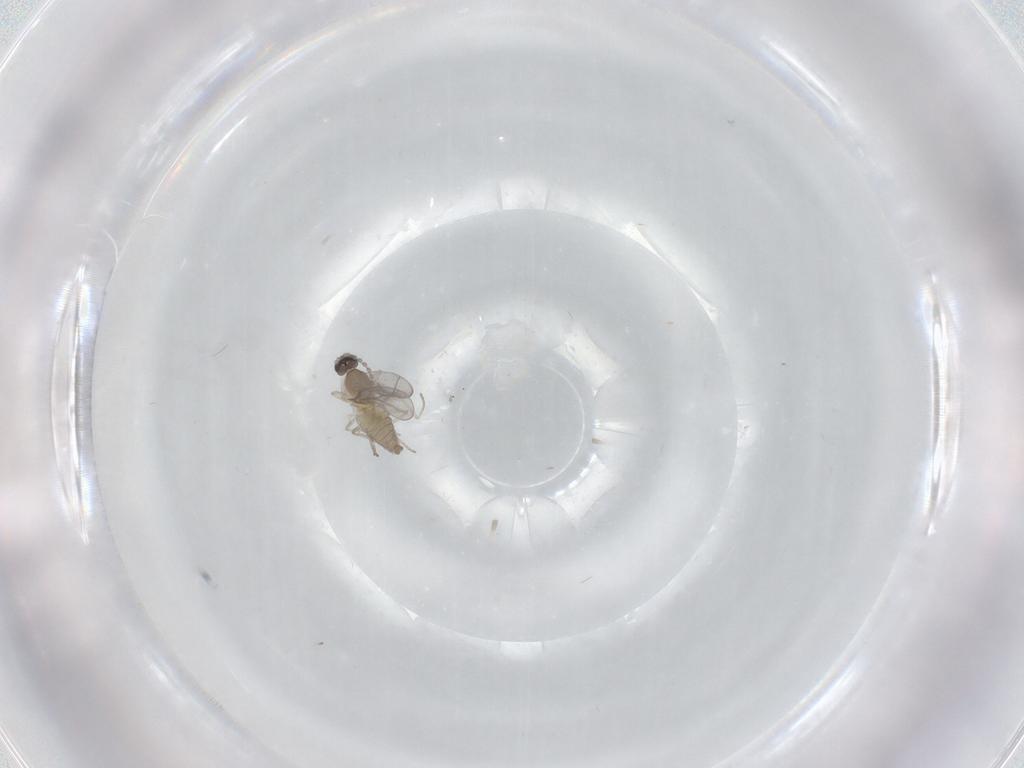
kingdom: Animalia
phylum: Arthropoda
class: Insecta
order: Diptera
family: Cecidomyiidae
